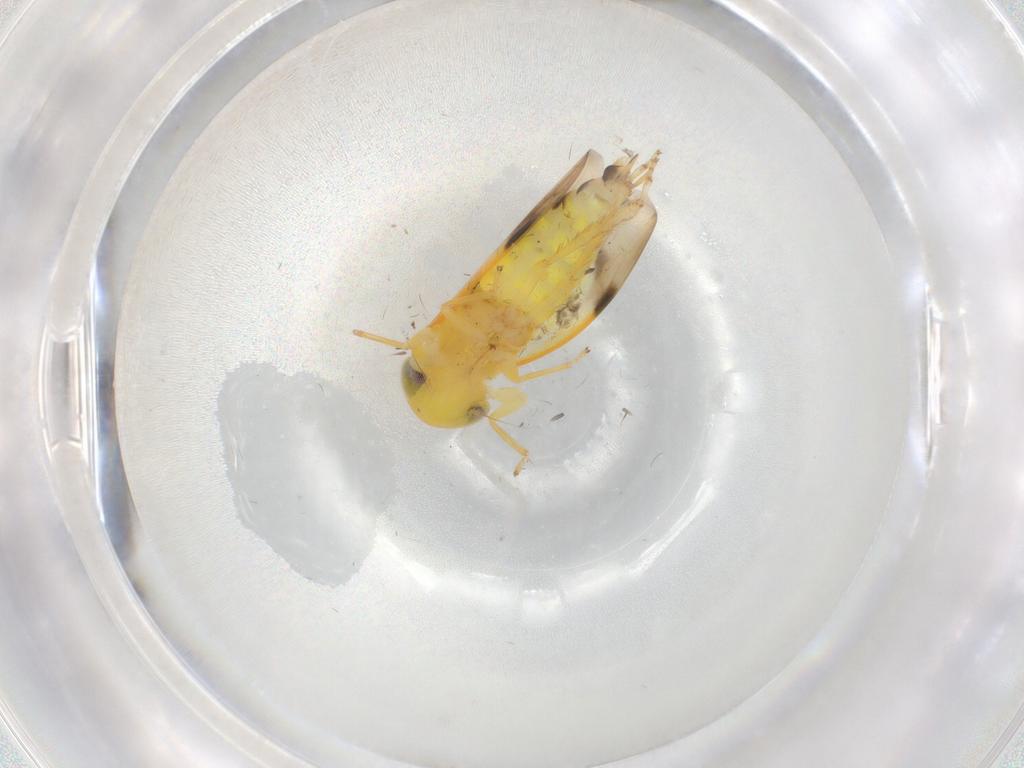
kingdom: Animalia
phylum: Arthropoda
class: Insecta
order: Hemiptera
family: Cicadellidae
